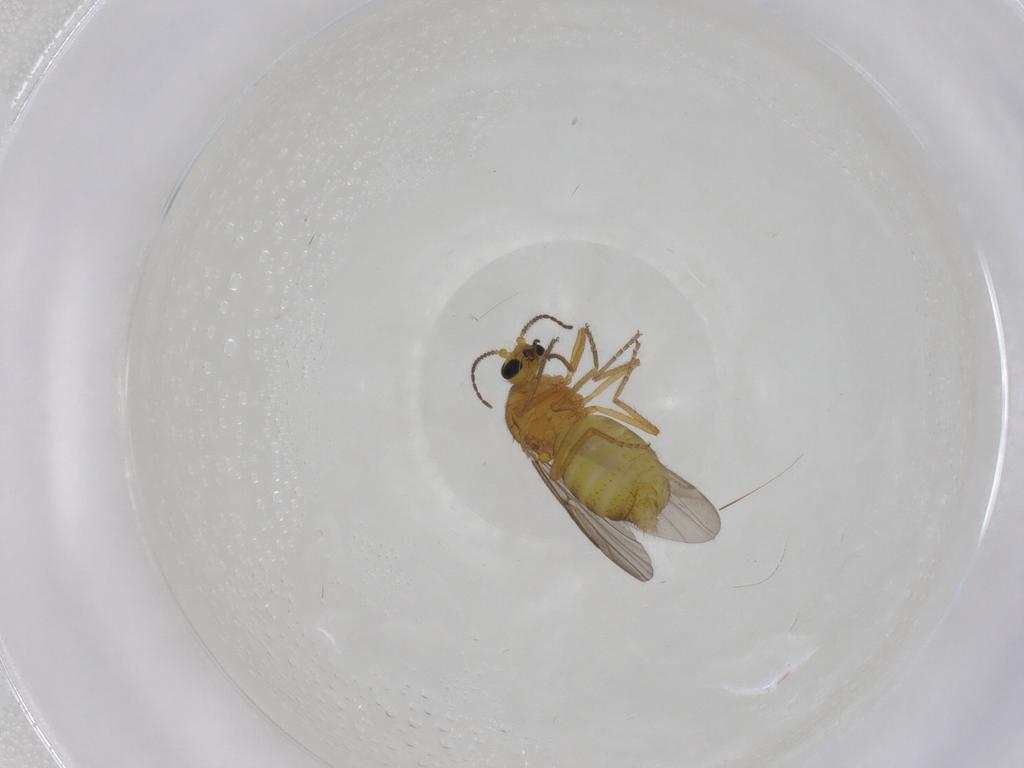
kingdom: Animalia
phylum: Arthropoda
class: Insecta
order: Diptera
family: Ceratopogonidae
